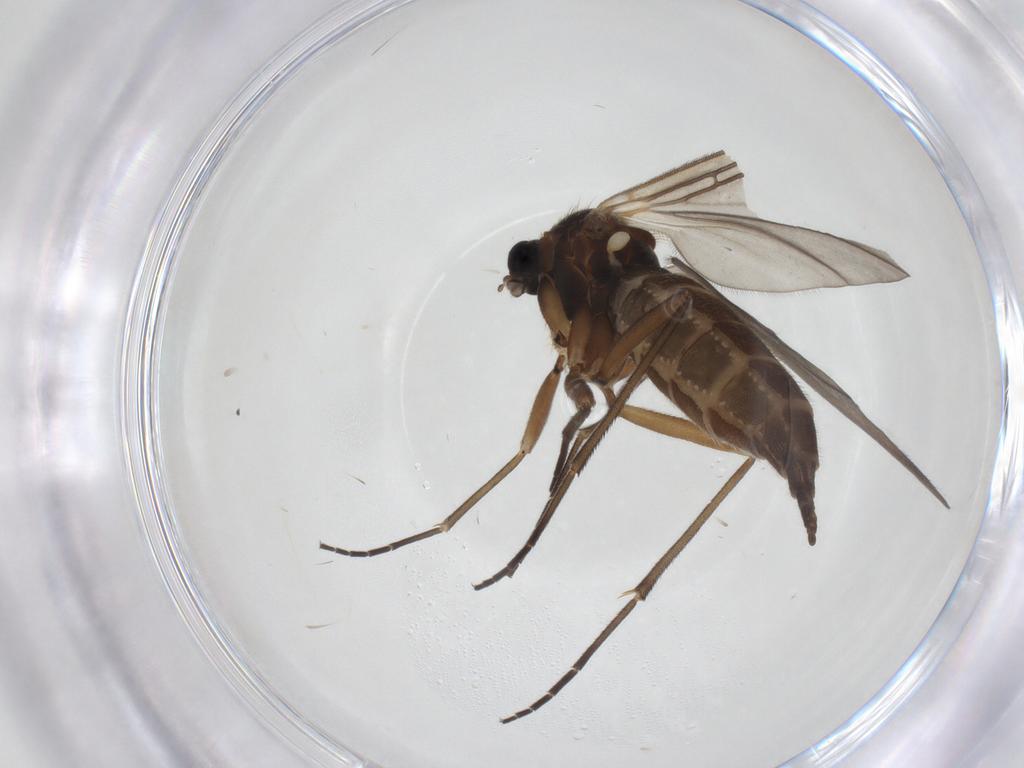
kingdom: Animalia
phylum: Arthropoda
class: Insecta
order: Diptera
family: Sciaridae
